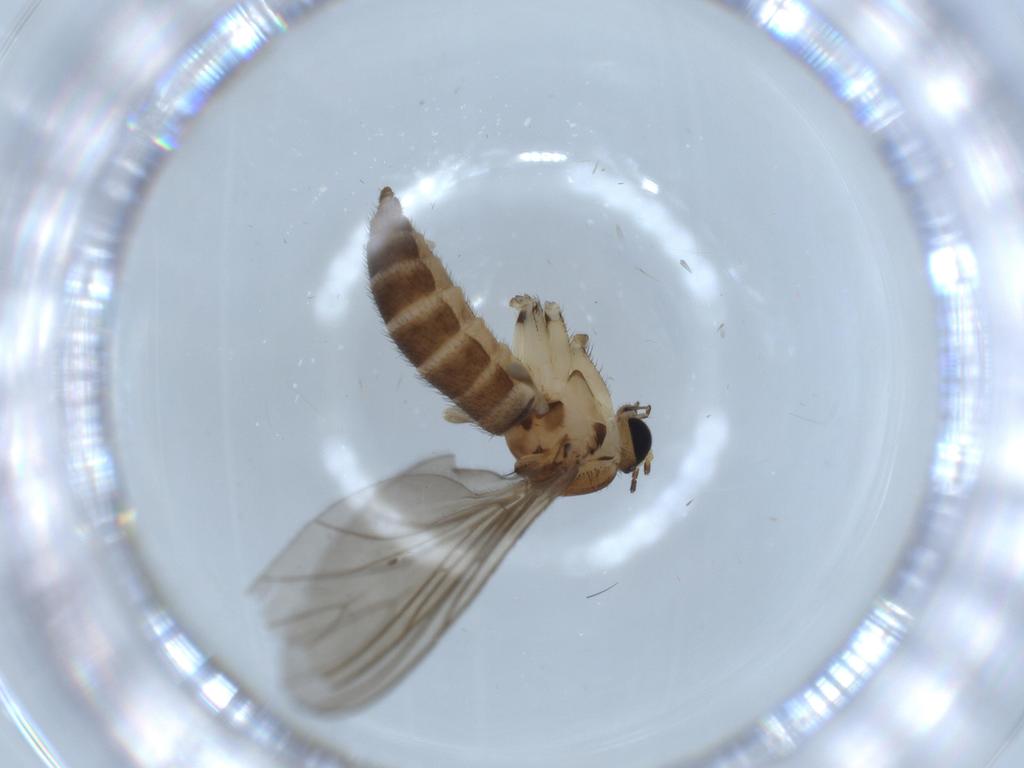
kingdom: Animalia
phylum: Arthropoda
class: Insecta
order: Diptera
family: Sciaridae
